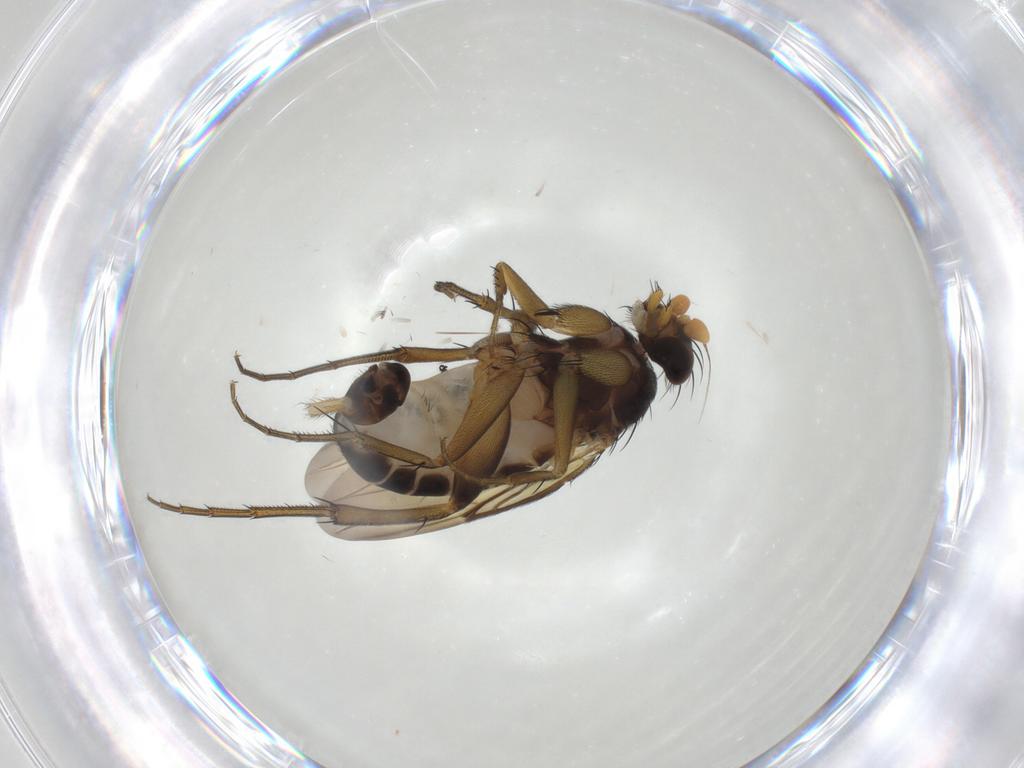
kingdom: Animalia
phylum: Arthropoda
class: Insecta
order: Diptera
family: Phoridae
